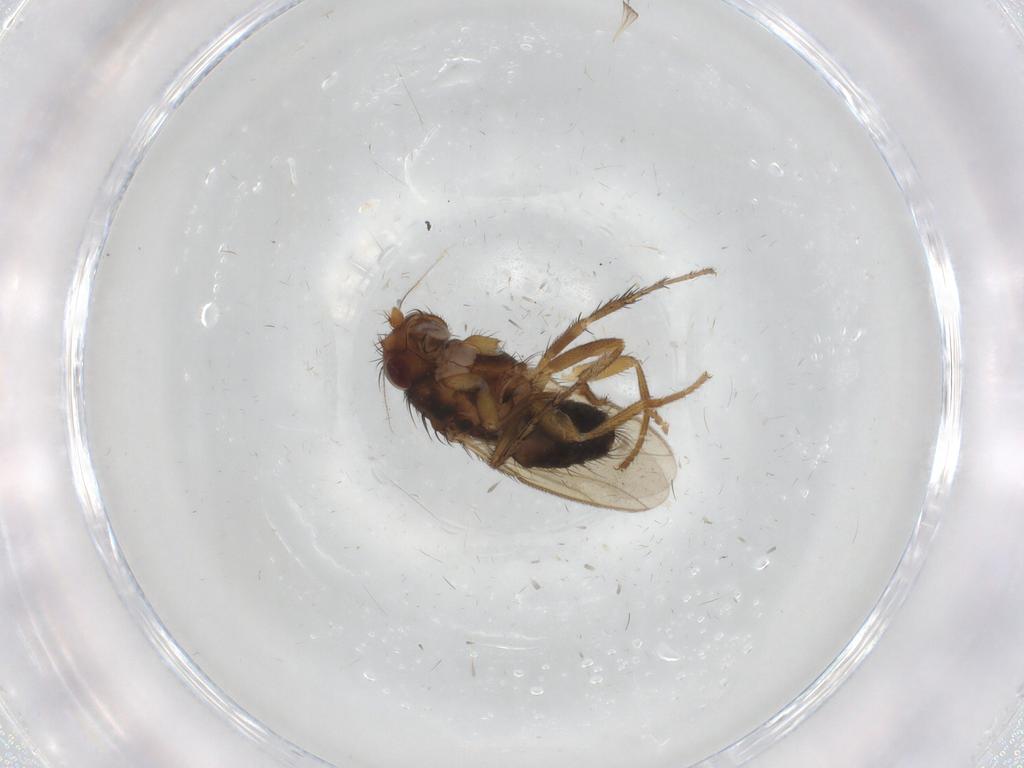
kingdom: Animalia
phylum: Arthropoda
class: Insecta
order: Diptera
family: Sphaeroceridae
